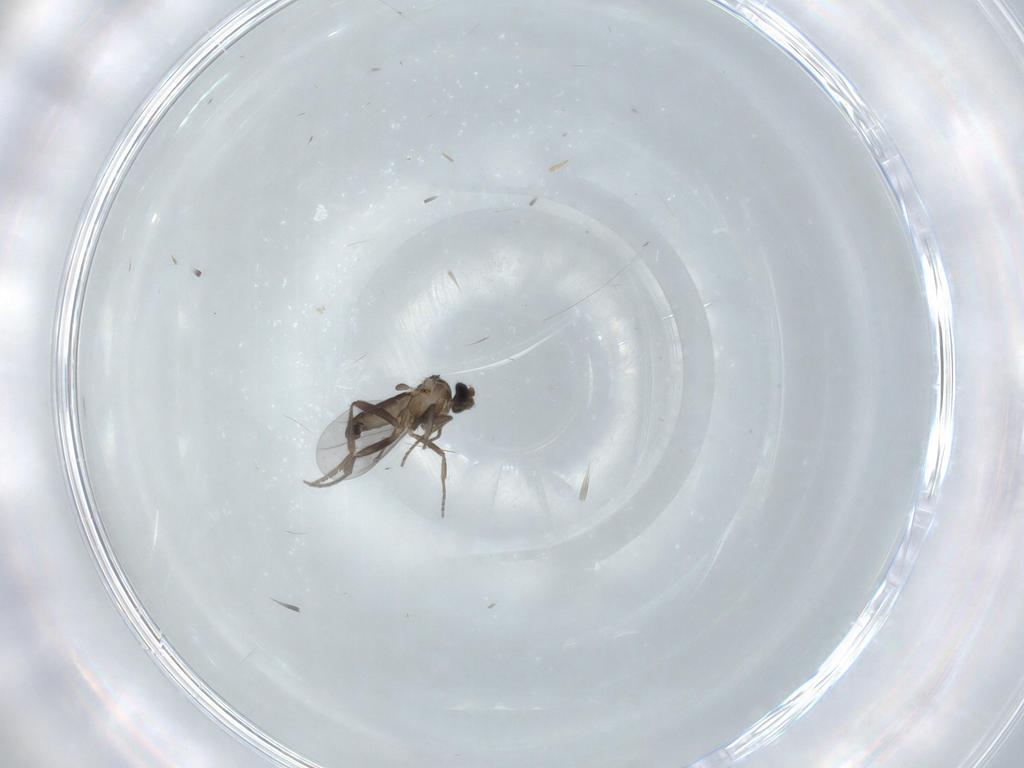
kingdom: Animalia
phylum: Arthropoda
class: Insecta
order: Diptera
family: Phoridae
